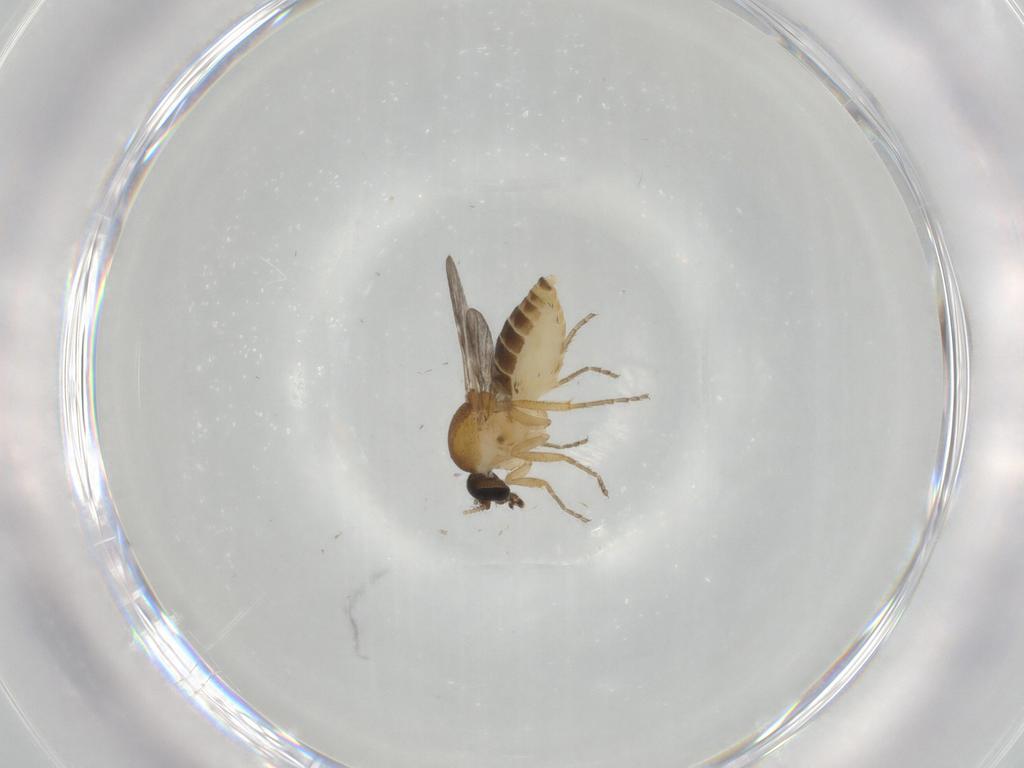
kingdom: Animalia
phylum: Arthropoda
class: Insecta
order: Diptera
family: Ceratopogonidae
